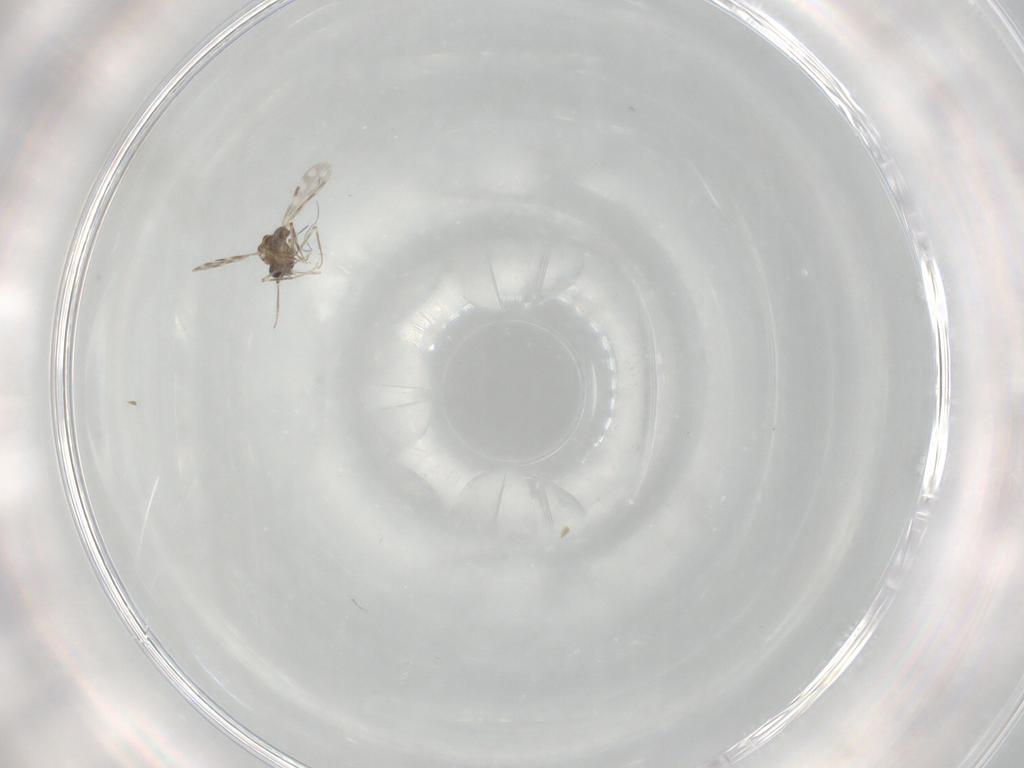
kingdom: Animalia
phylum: Arthropoda
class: Insecta
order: Diptera
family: Ceratopogonidae
